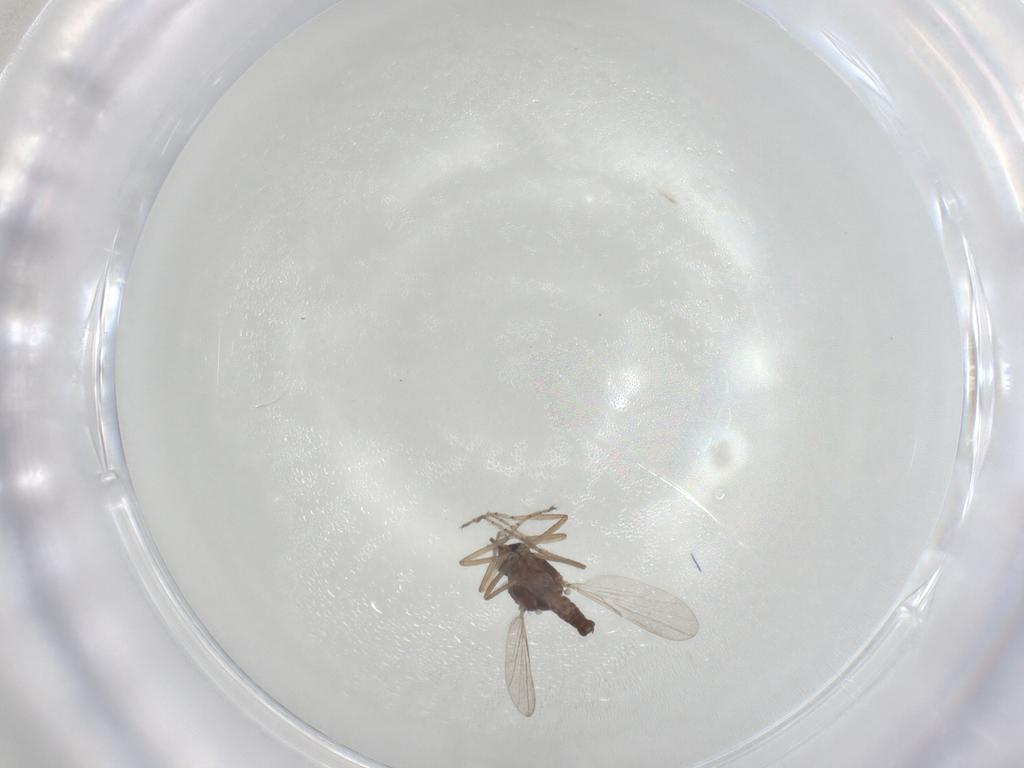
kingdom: Animalia
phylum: Arthropoda
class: Insecta
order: Diptera
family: Ceratopogonidae
